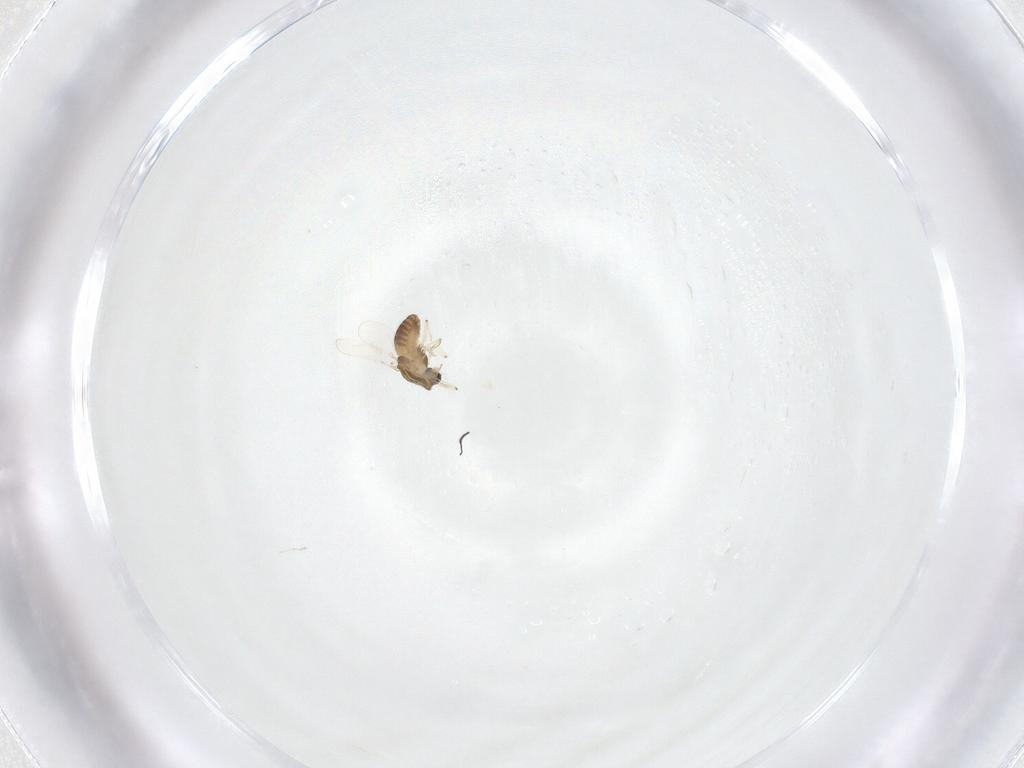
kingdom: Animalia
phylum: Arthropoda
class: Insecta
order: Diptera
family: Chironomidae
